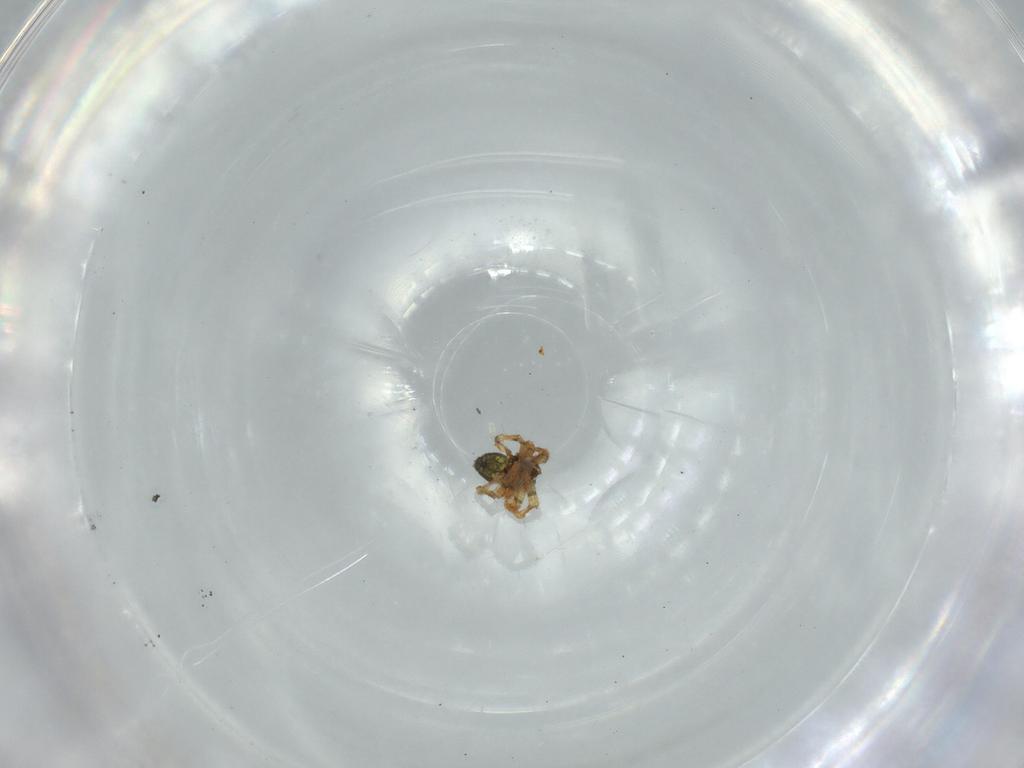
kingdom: Animalia
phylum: Arthropoda
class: Arachnida
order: Araneae
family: Theridiidae
